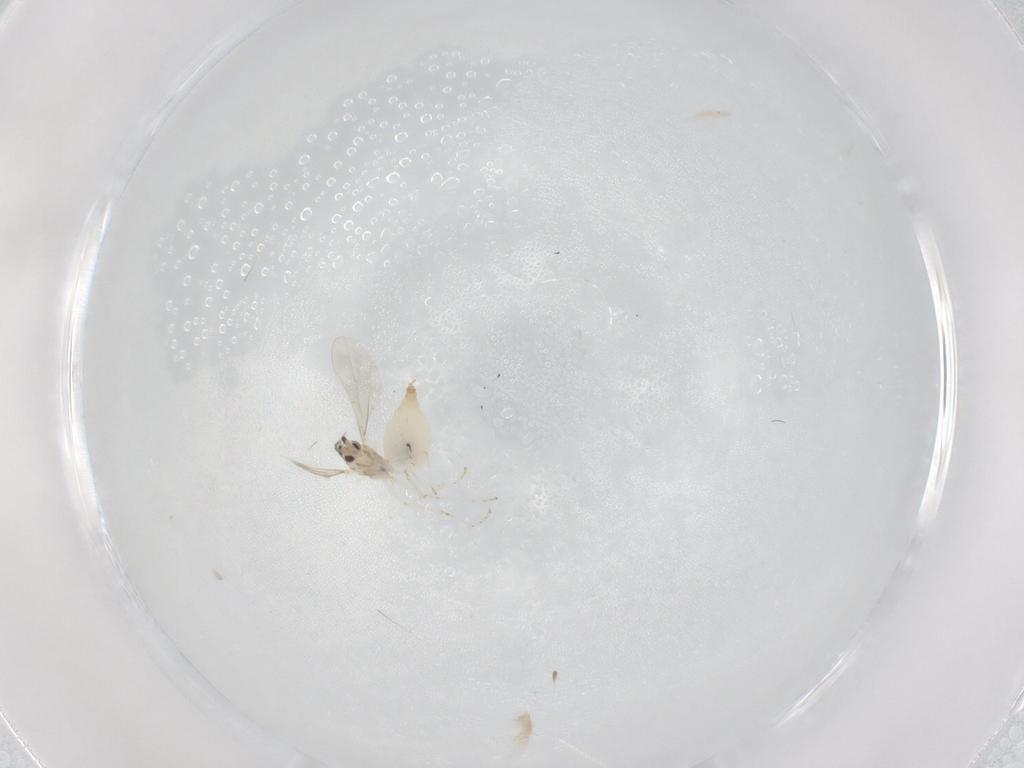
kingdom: Animalia
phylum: Arthropoda
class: Insecta
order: Diptera
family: Cecidomyiidae
